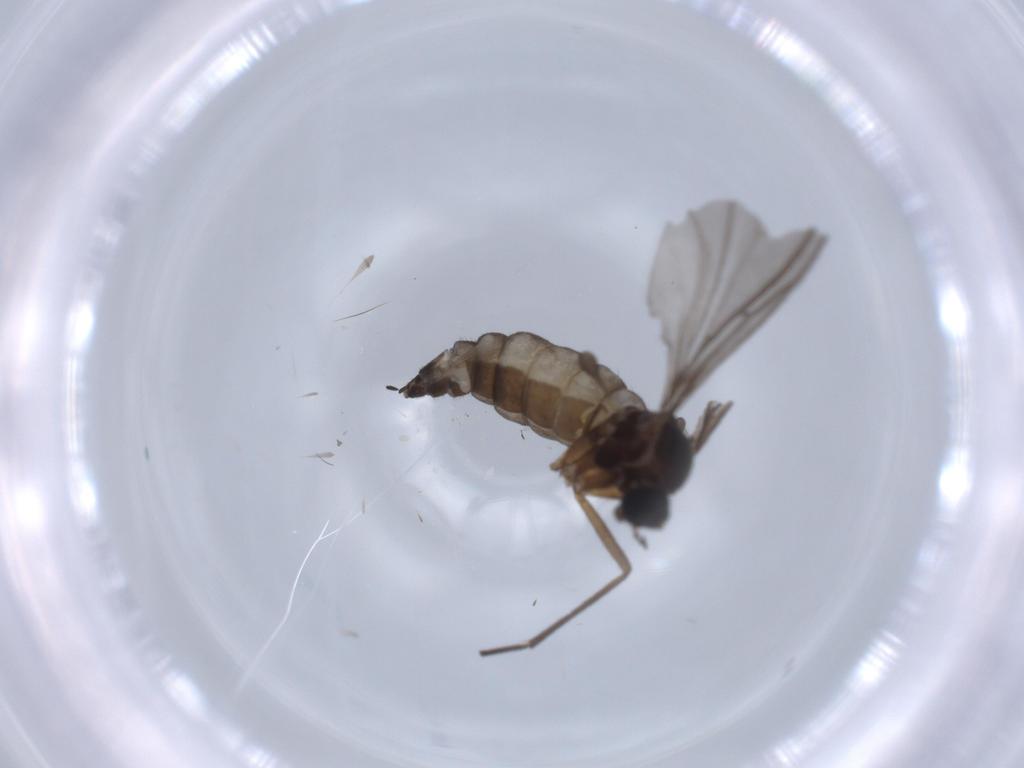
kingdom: Animalia
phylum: Arthropoda
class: Insecta
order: Diptera
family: Sciaridae
